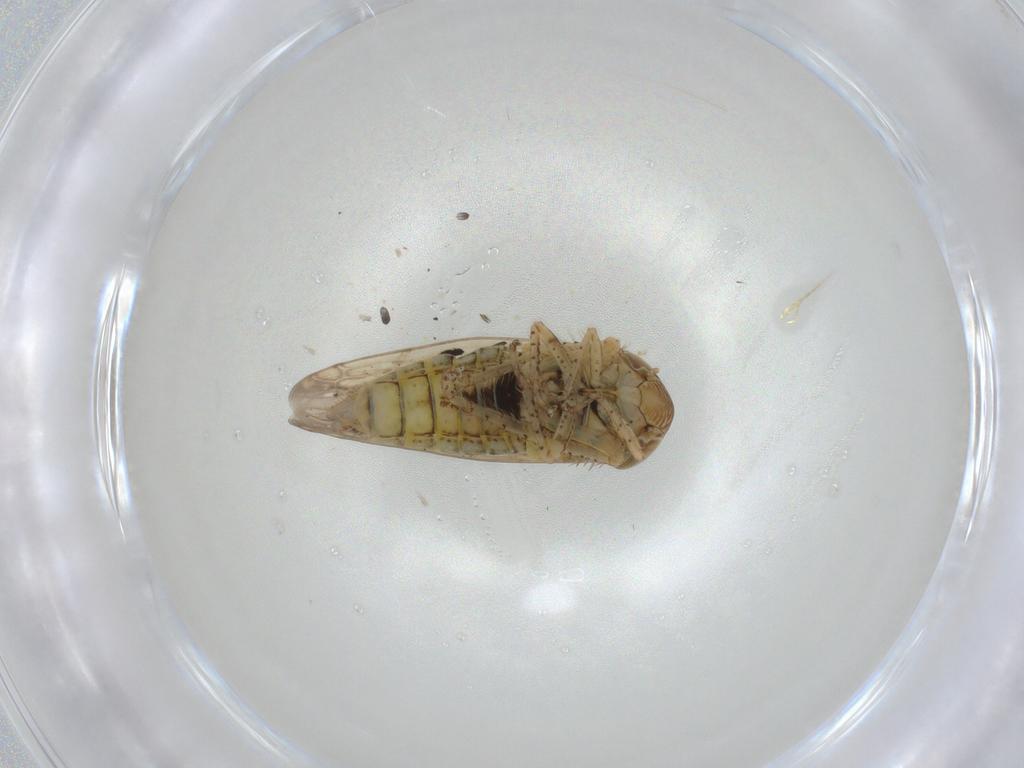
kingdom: Animalia
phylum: Arthropoda
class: Insecta
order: Hemiptera
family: Cicadellidae
